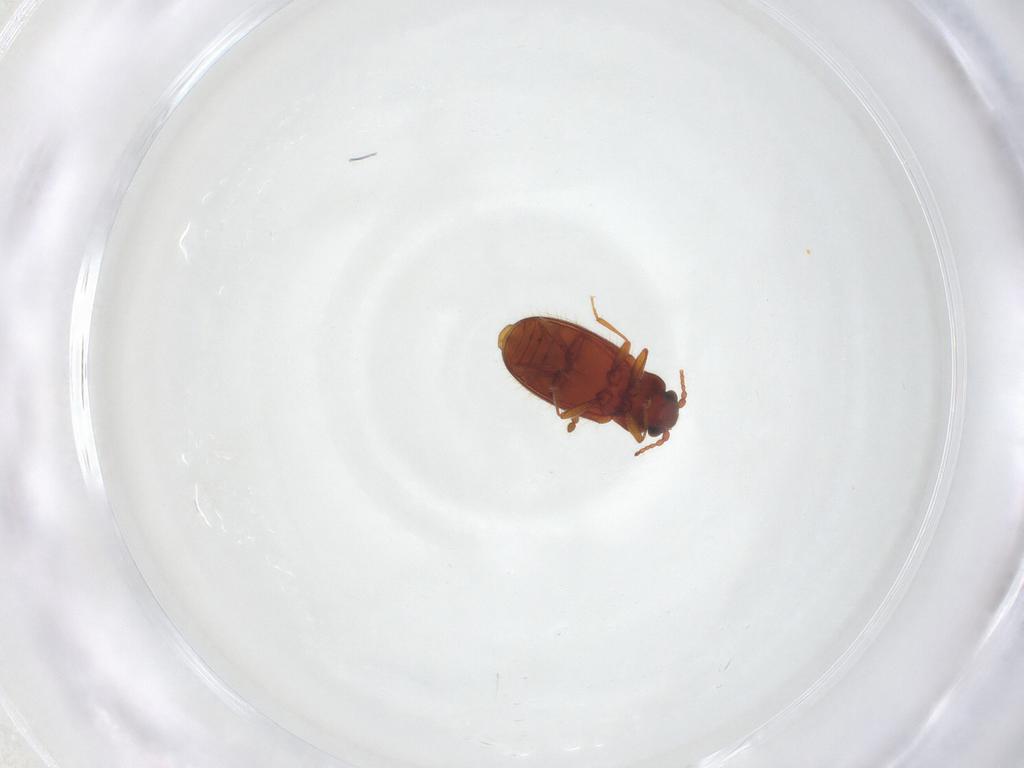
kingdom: Animalia
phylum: Arthropoda
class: Insecta
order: Coleoptera
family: Cryptophagidae
